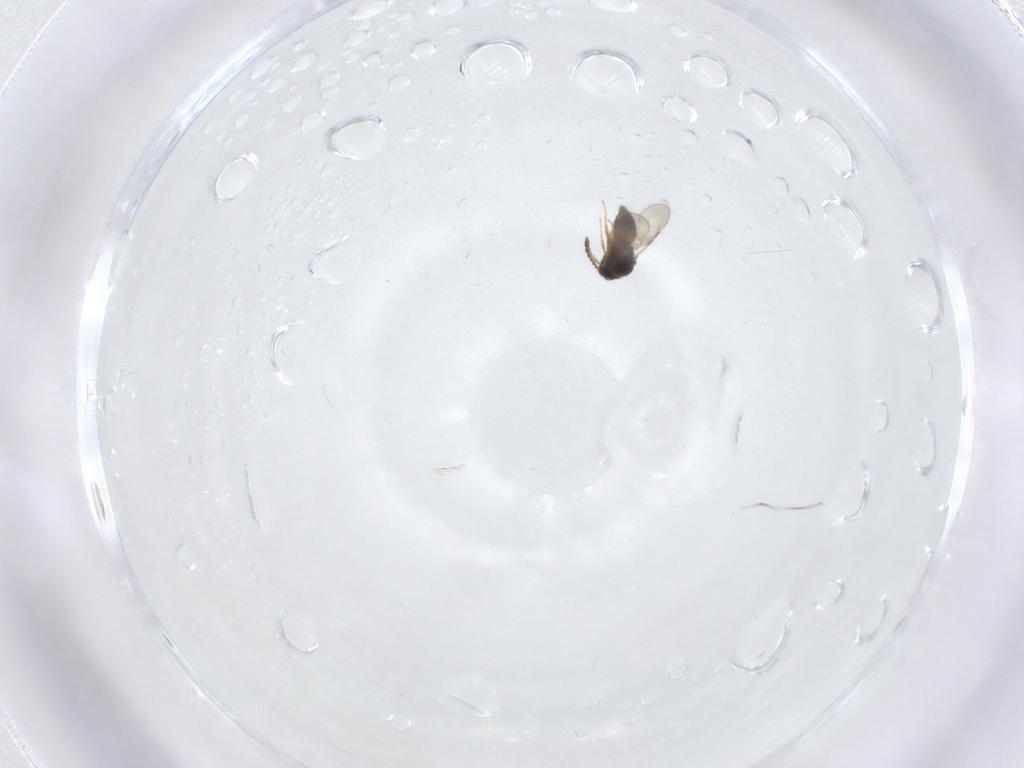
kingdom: Animalia
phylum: Arthropoda
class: Insecta
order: Hymenoptera
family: Ceraphronidae
